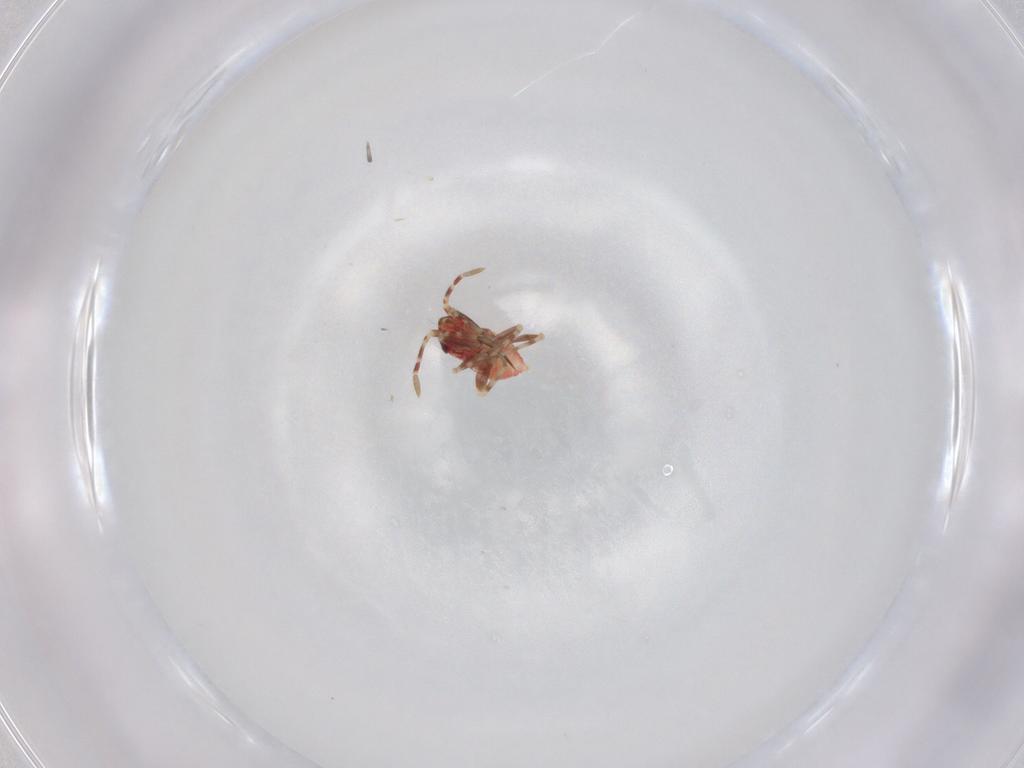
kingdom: Animalia
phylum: Arthropoda
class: Insecta
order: Hemiptera
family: Miridae
